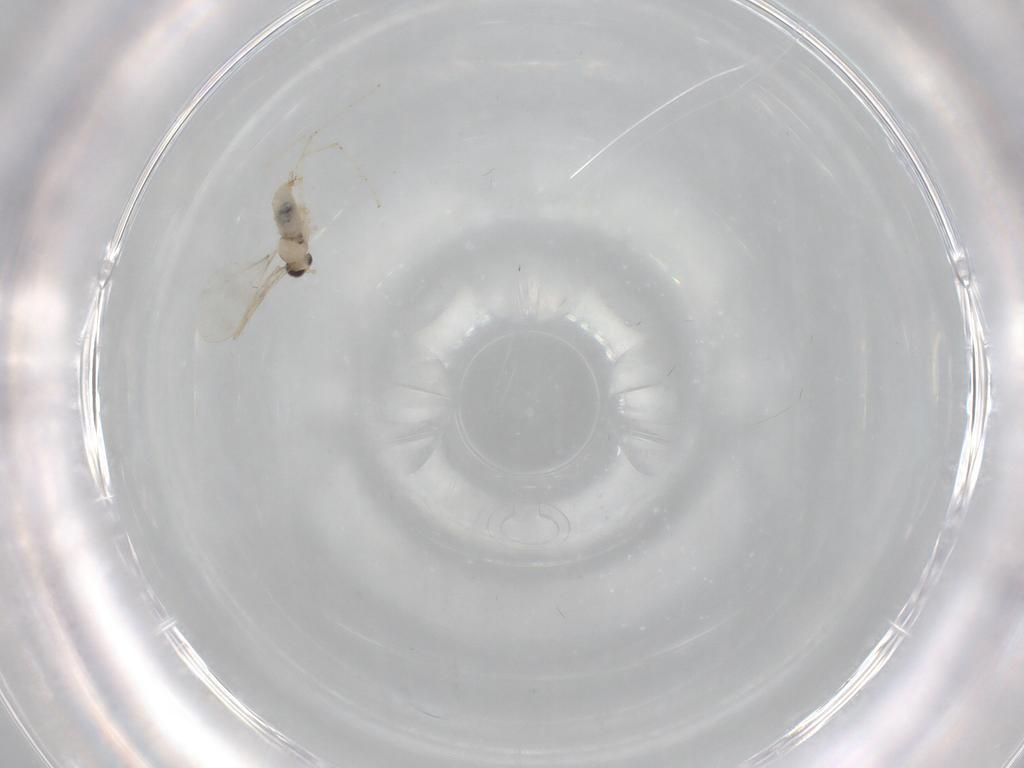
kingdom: Animalia
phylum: Arthropoda
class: Insecta
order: Diptera
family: Cecidomyiidae
